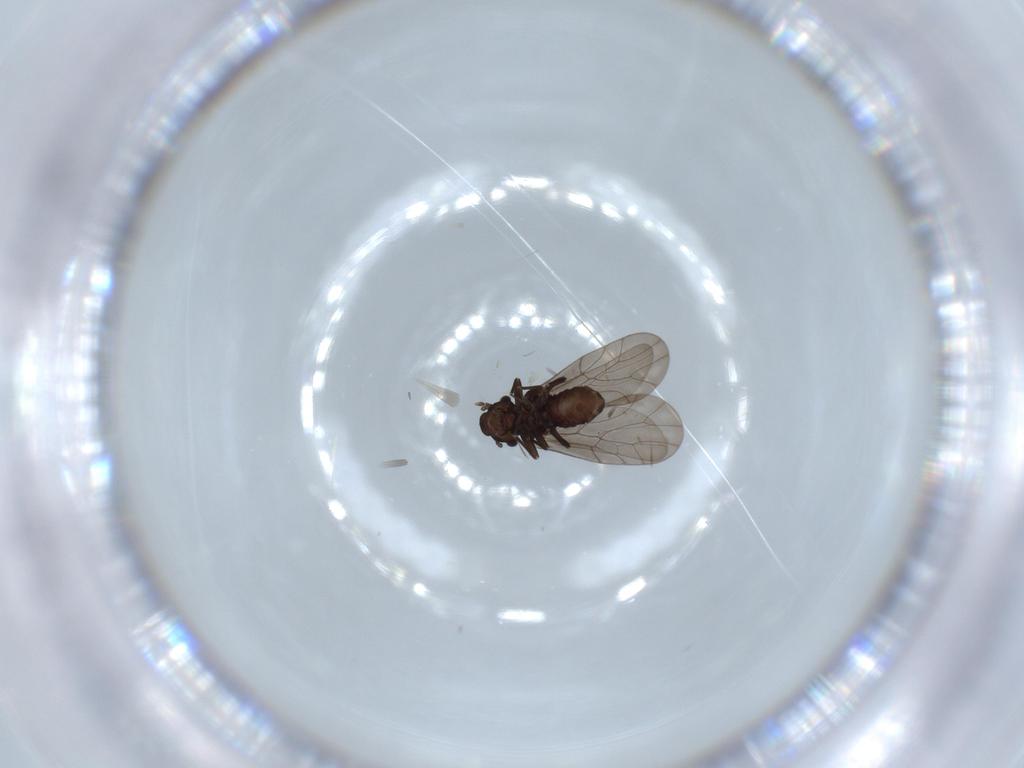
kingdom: Animalia
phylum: Arthropoda
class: Insecta
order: Psocodea
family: Lepidopsocidae
